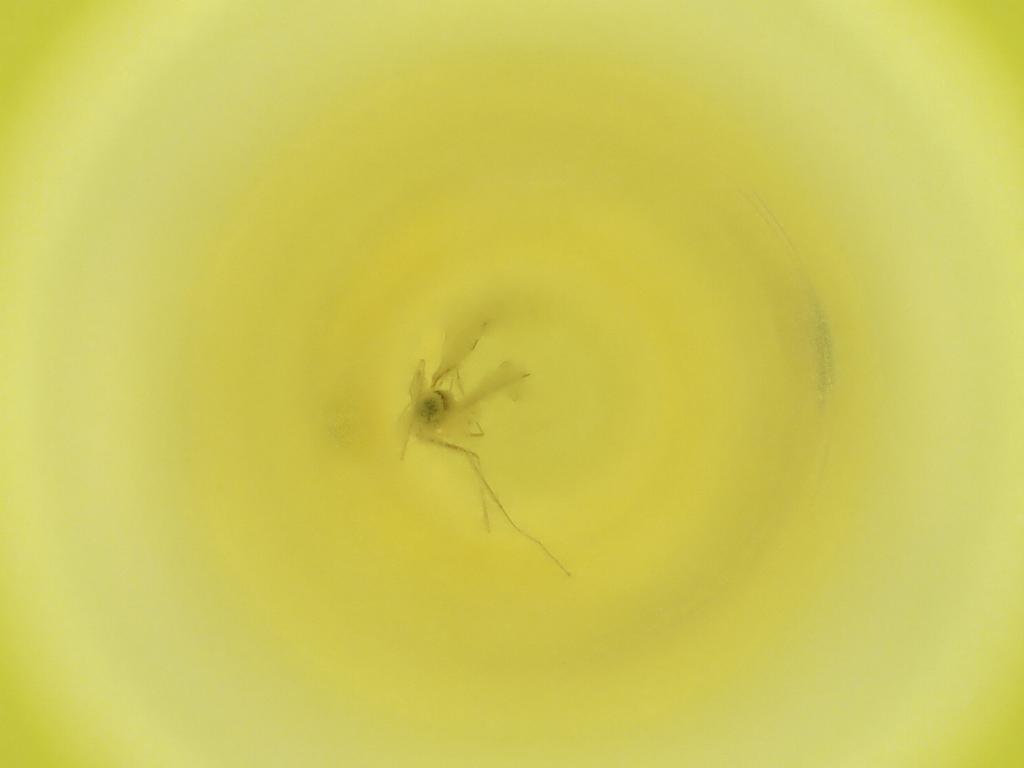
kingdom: Animalia
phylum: Arthropoda
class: Insecta
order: Diptera
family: Cecidomyiidae
